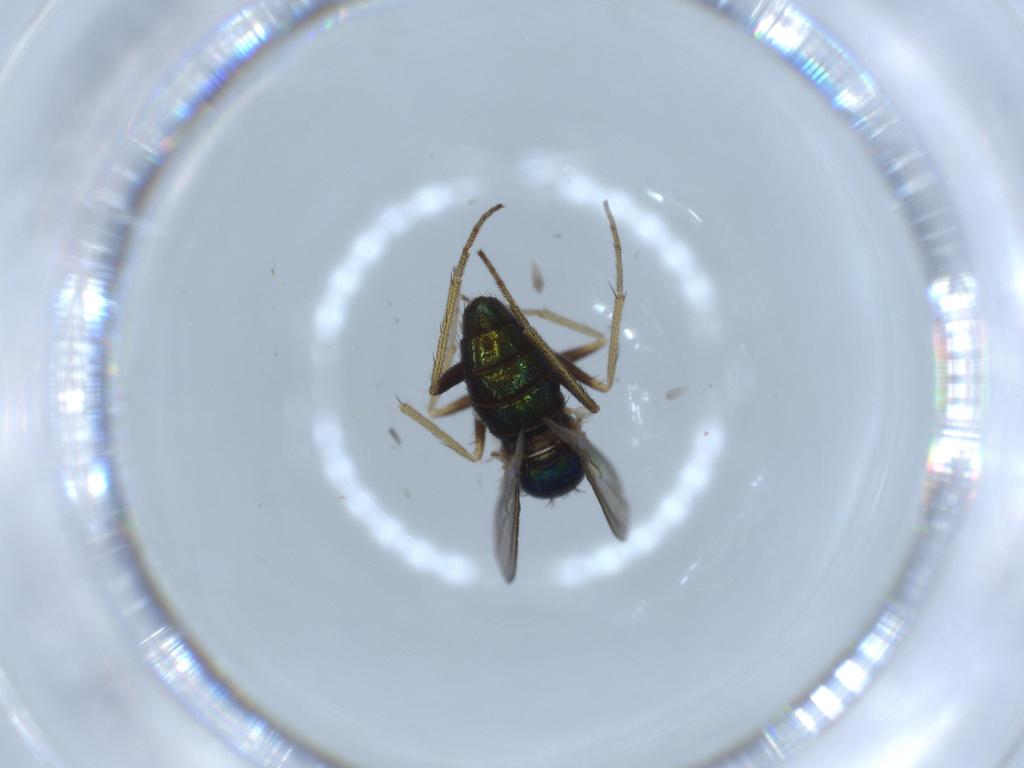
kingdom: Animalia
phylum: Arthropoda
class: Insecta
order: Diptera
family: Dolichopodidae
